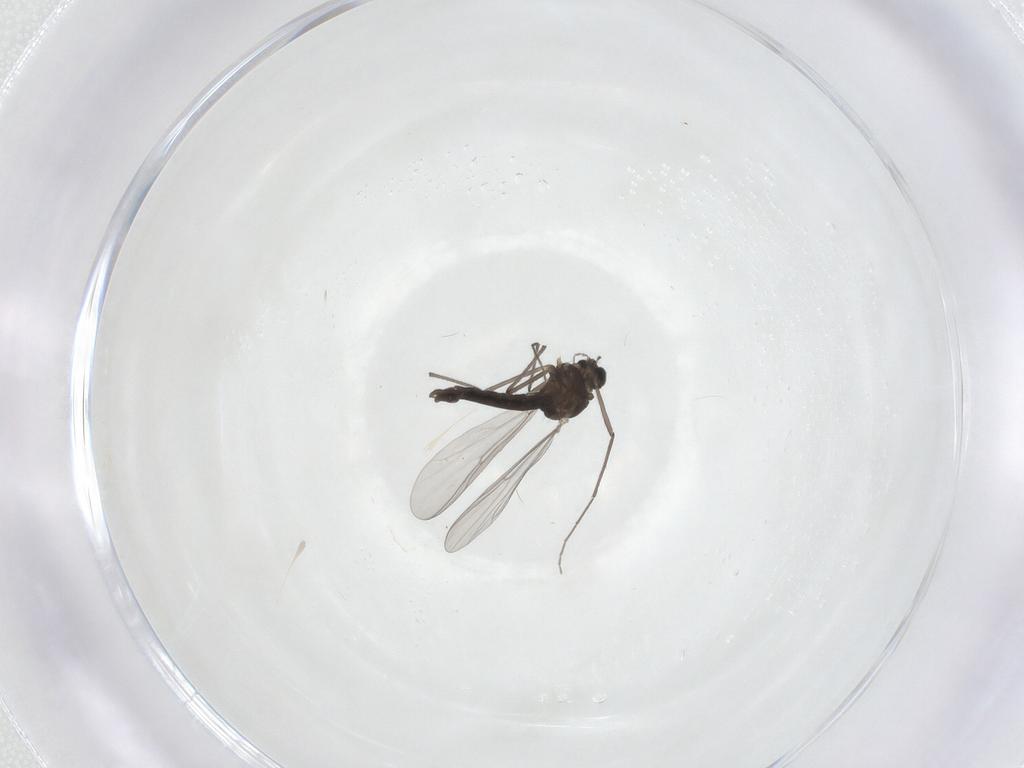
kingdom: Animalia
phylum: Arthropoda
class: Insecta
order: Diptera
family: Chironomidae
